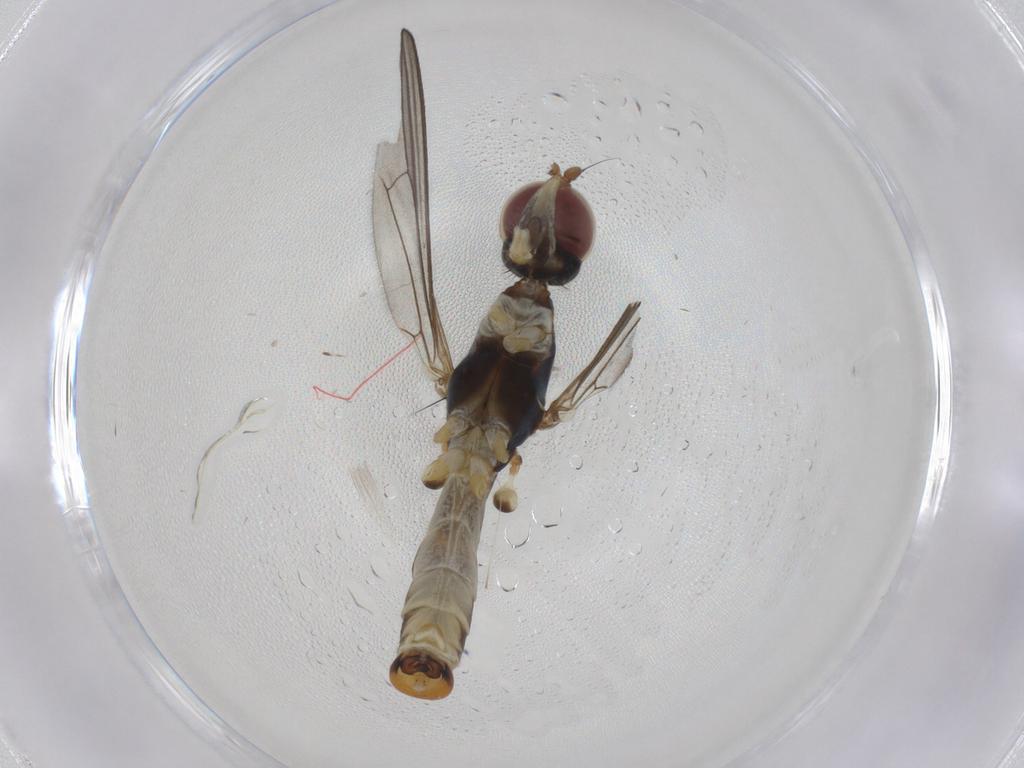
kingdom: Animalia
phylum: Arthropoda
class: Insecta
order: Diptera
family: Micropezidae
